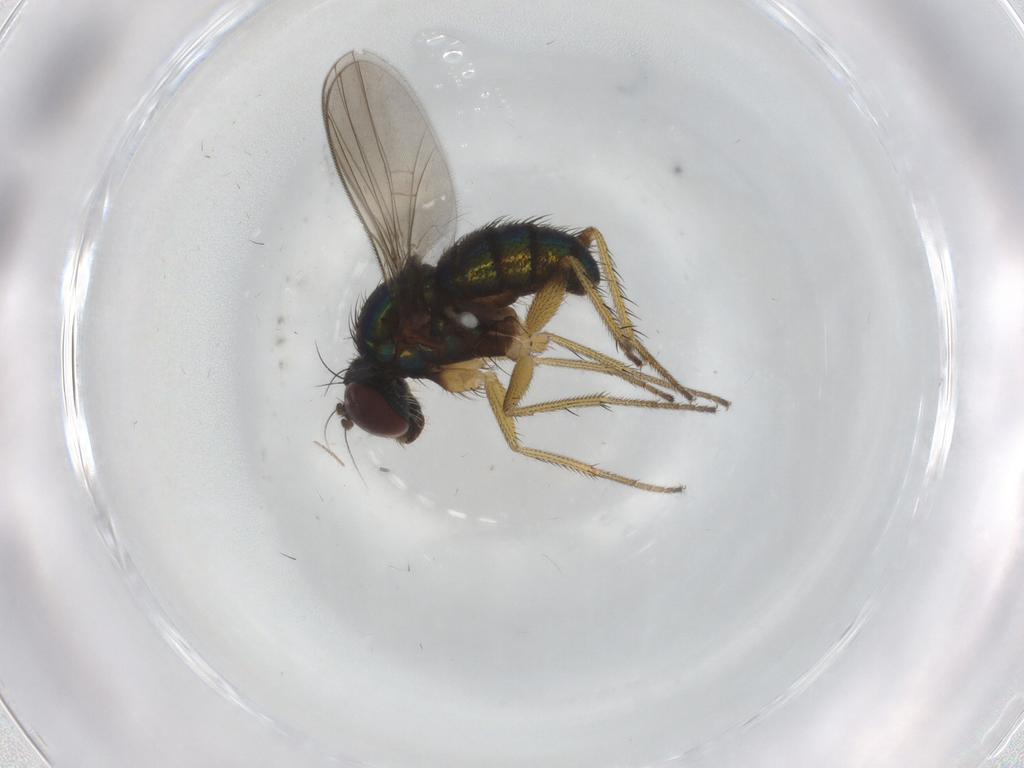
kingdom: Animalia
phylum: Arthropoda
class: Insecta
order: Diptera
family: Dolichopodidae
